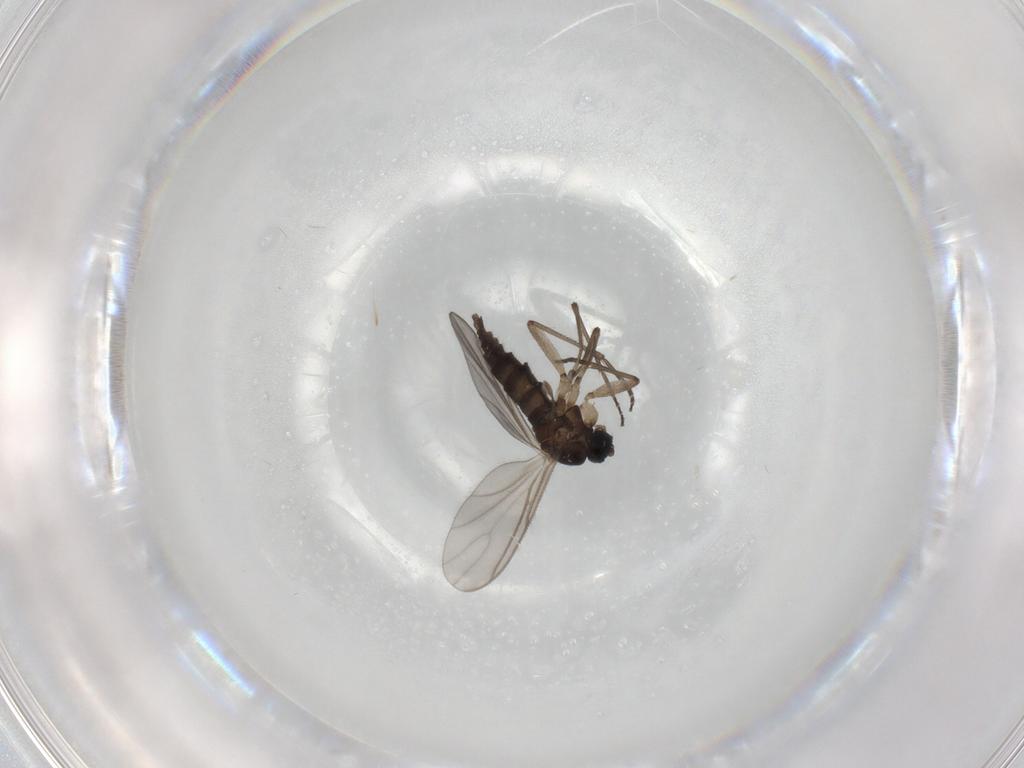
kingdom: Animalia
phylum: Arthropoda
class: Insecta
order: Diptera
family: Sciaridae
